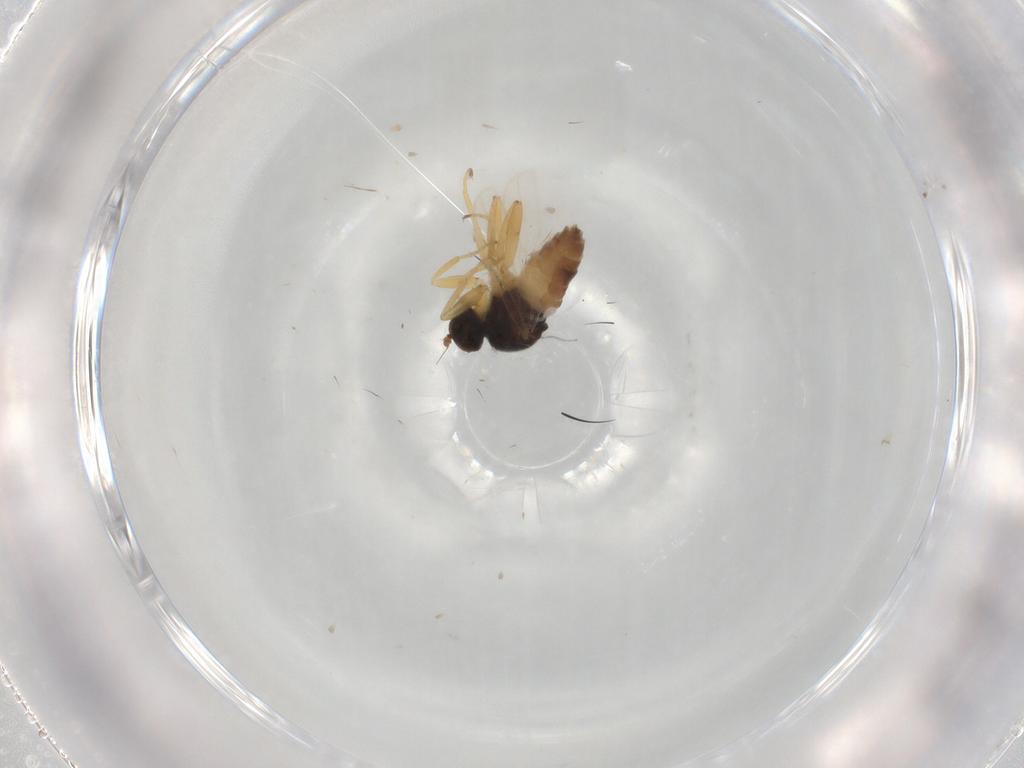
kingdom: Animalia
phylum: Arthropoda
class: Insecta
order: Diptera
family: Hybotidae
